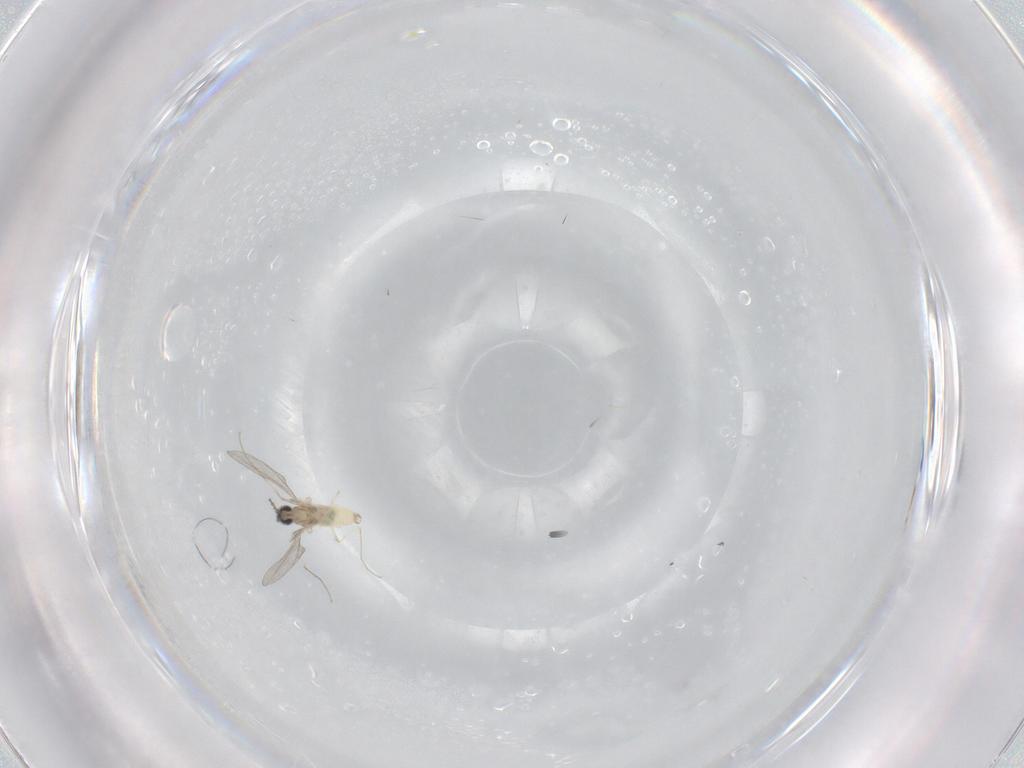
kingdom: Animalia
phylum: Arthropoda
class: Insecta
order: Diptera
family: Cecidomyiidae
